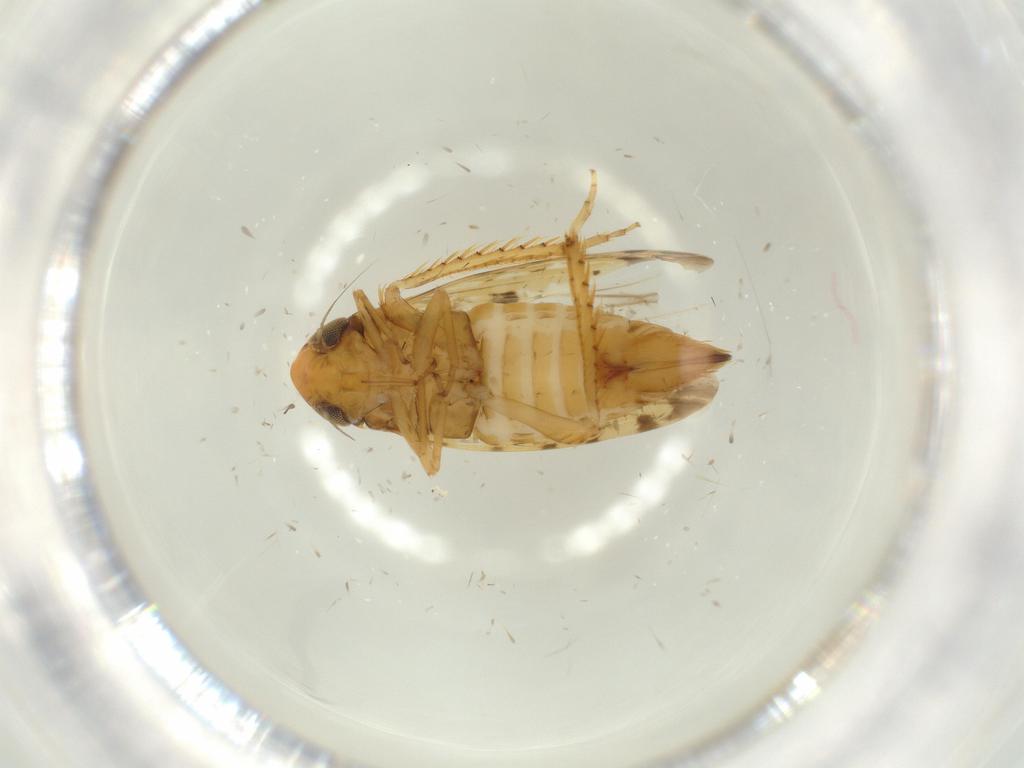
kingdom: Animalia
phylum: Arthropoda
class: Insecta
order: Hemiptera
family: Cicadellidae
